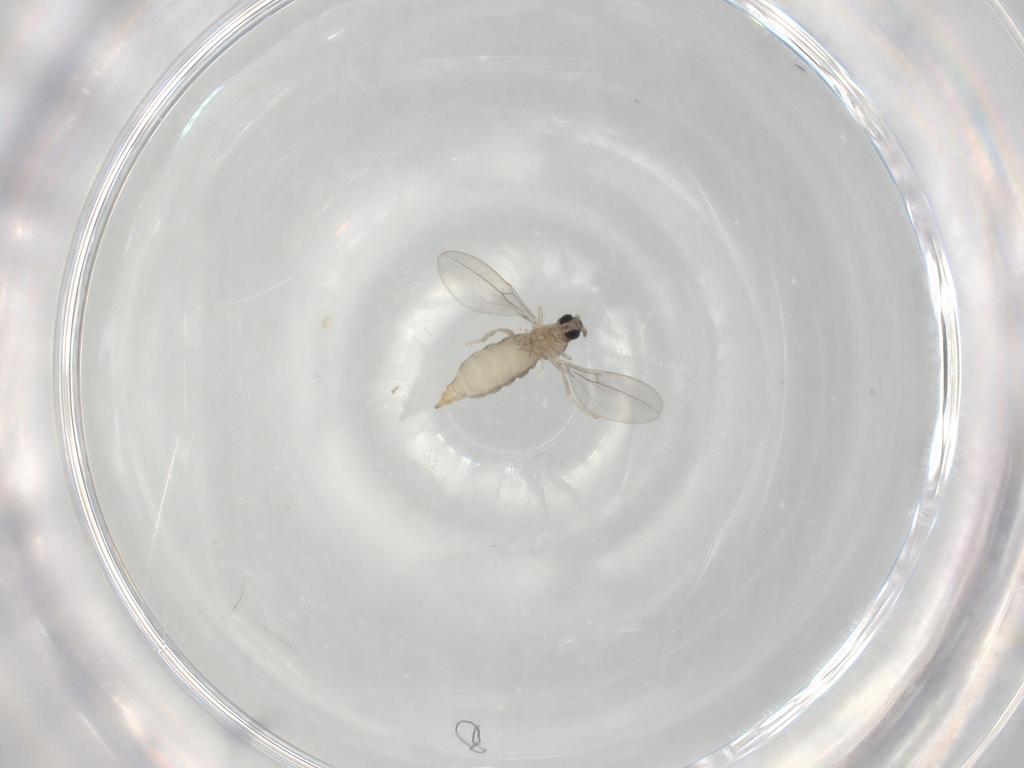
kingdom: Animalia
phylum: Arthropoda
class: Insecta
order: Diptera
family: Cecidomyiidae
